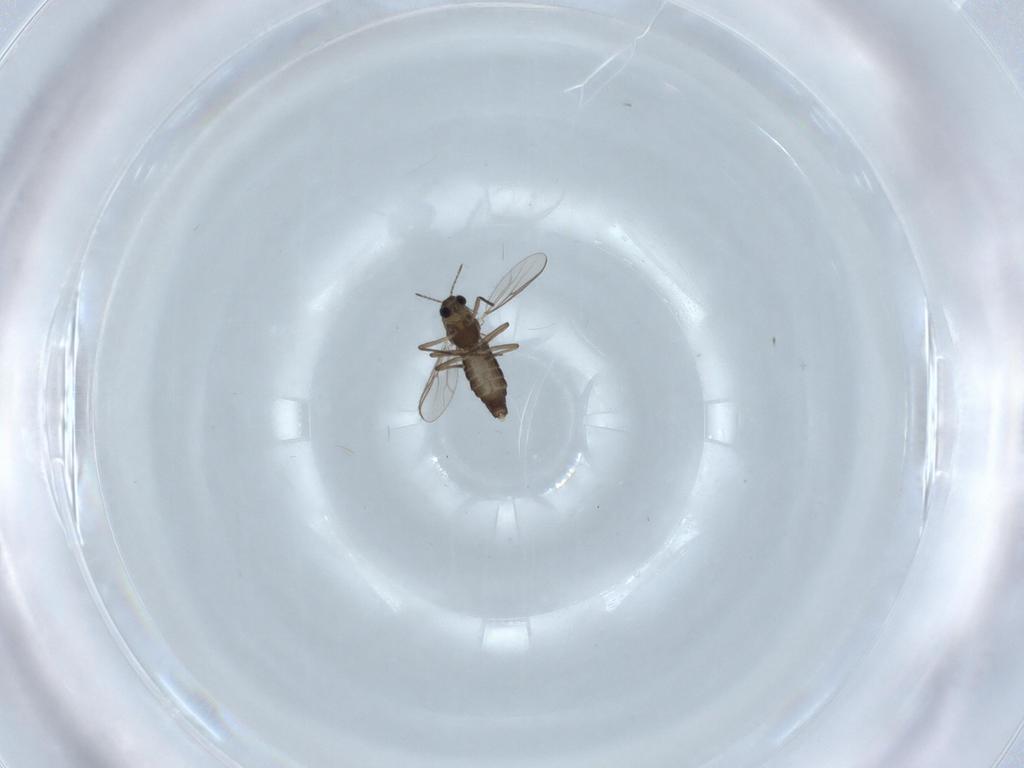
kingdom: Animalia
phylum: Arthropoda
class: Insecta
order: Diptera
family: Chironomidae
